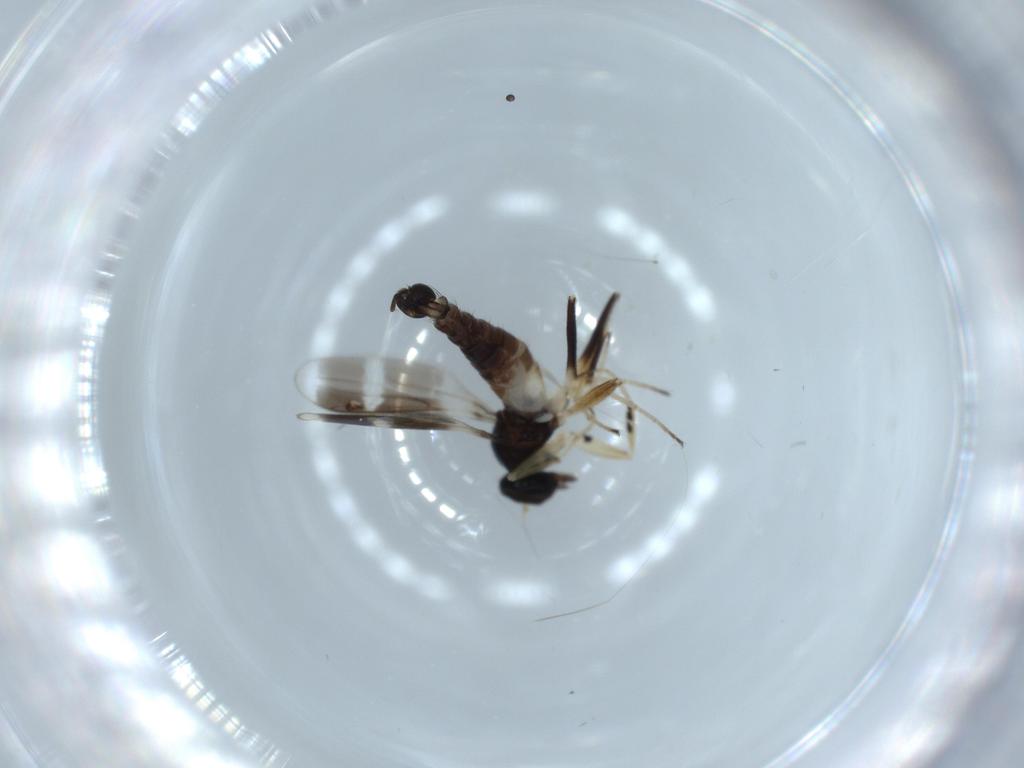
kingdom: Animalia
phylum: Arthropoda
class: Insecta
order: Diptera
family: Hybotidae
